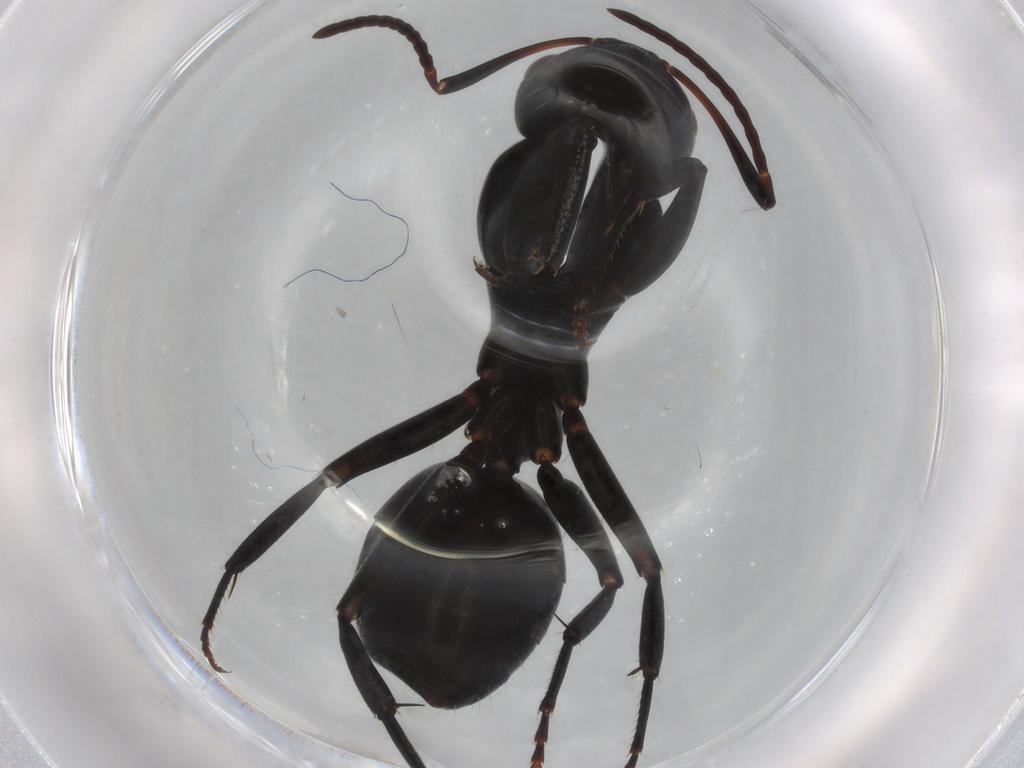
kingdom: Animalia
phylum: Arthropoda
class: Insecta
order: Hymenoptera
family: Formicidae
